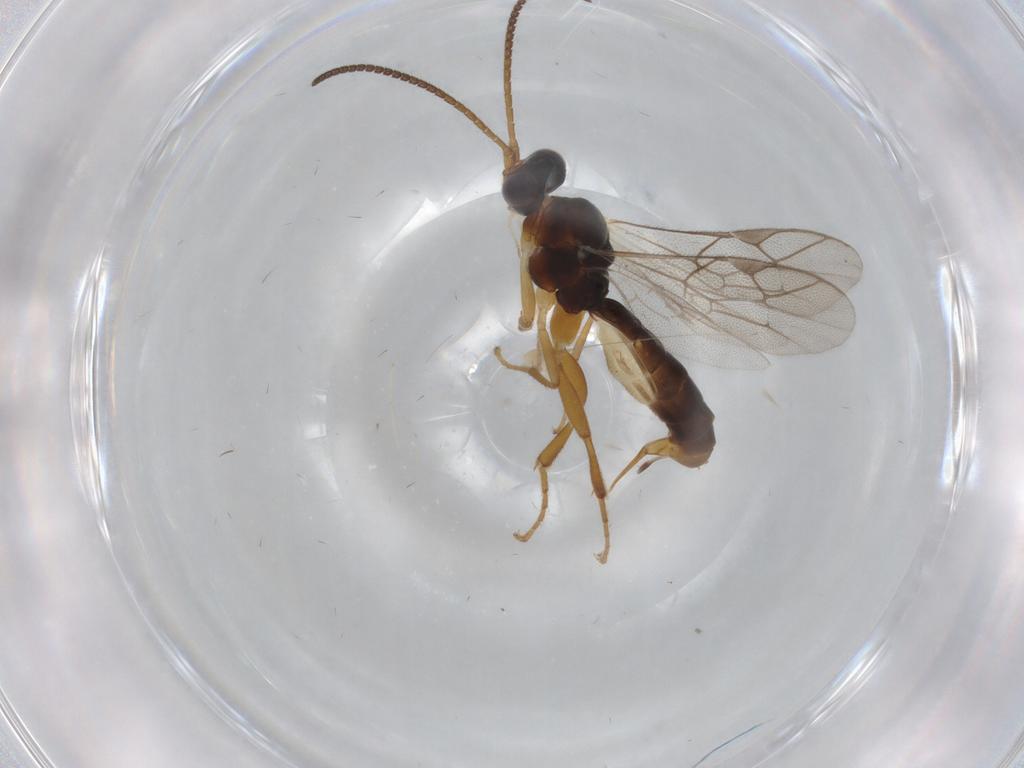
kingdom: Animalia
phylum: Arthropoda
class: Insecta
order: Hymenoptera
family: Ichneumonidae
